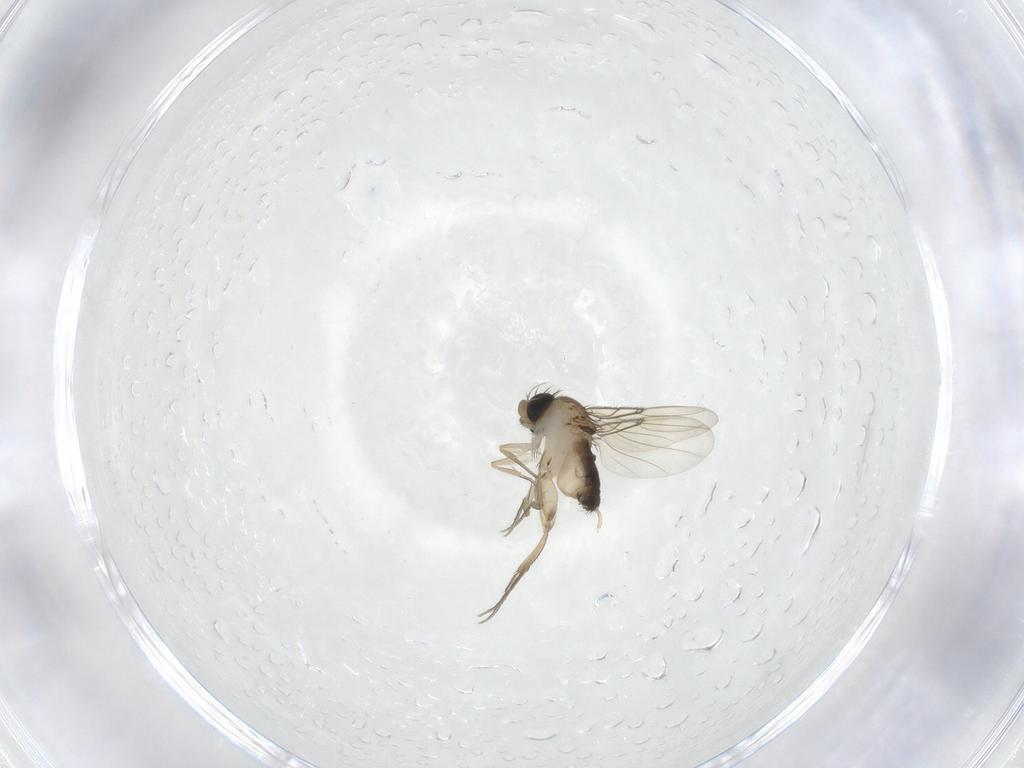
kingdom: Animalia
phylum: Arthropoda
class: Insecta
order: Diptera
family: Phoridae
